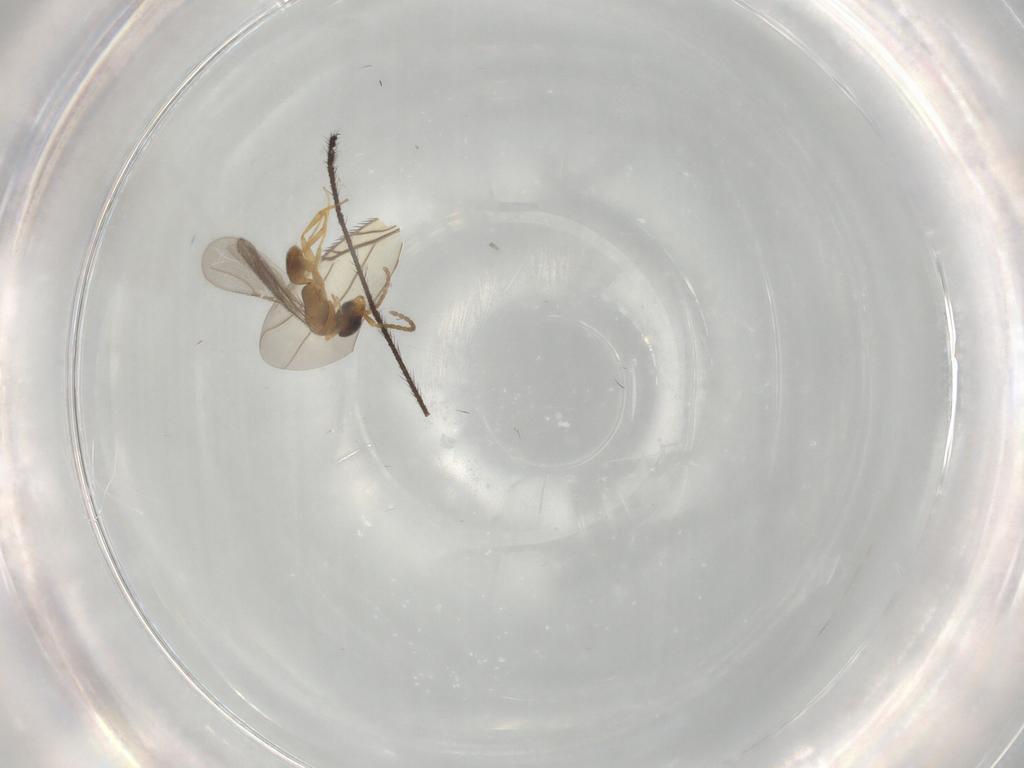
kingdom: Animalia
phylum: Arthropoda
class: Insecta
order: Hymenoptera
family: Bethylidae
